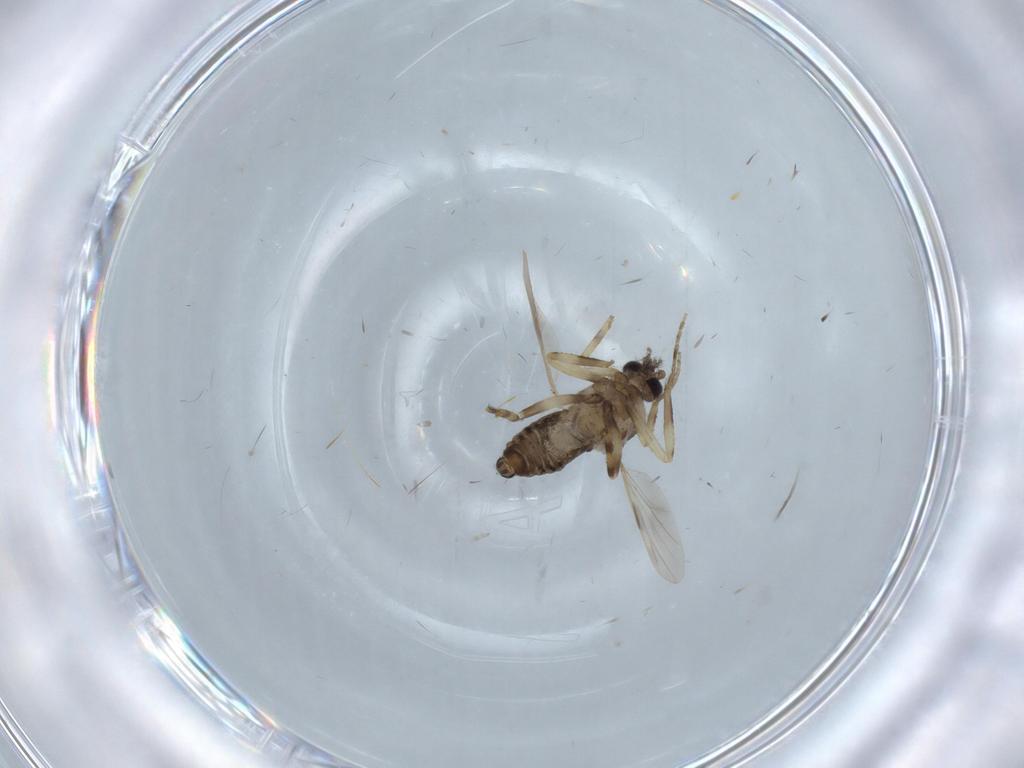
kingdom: Animalia
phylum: Arthropoda
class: Insecta
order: Diptera
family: Ceratopogonidae
